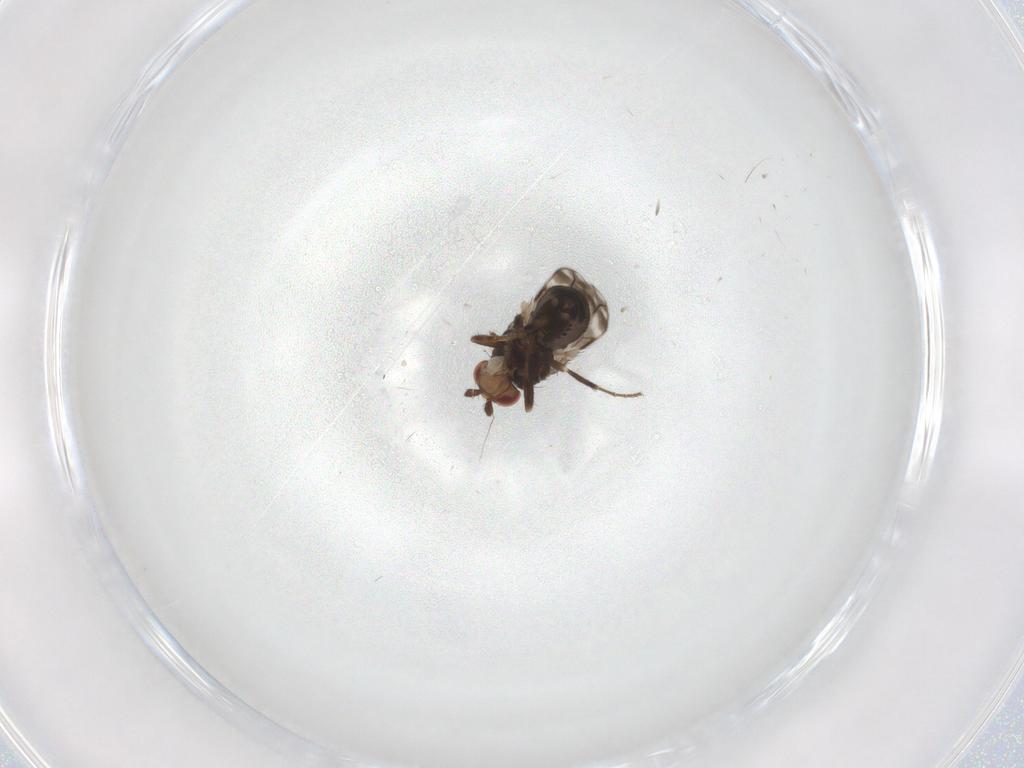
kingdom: Animalia
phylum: Arthropoda
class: Insecta
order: Diptera
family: Sphaeroceridae
